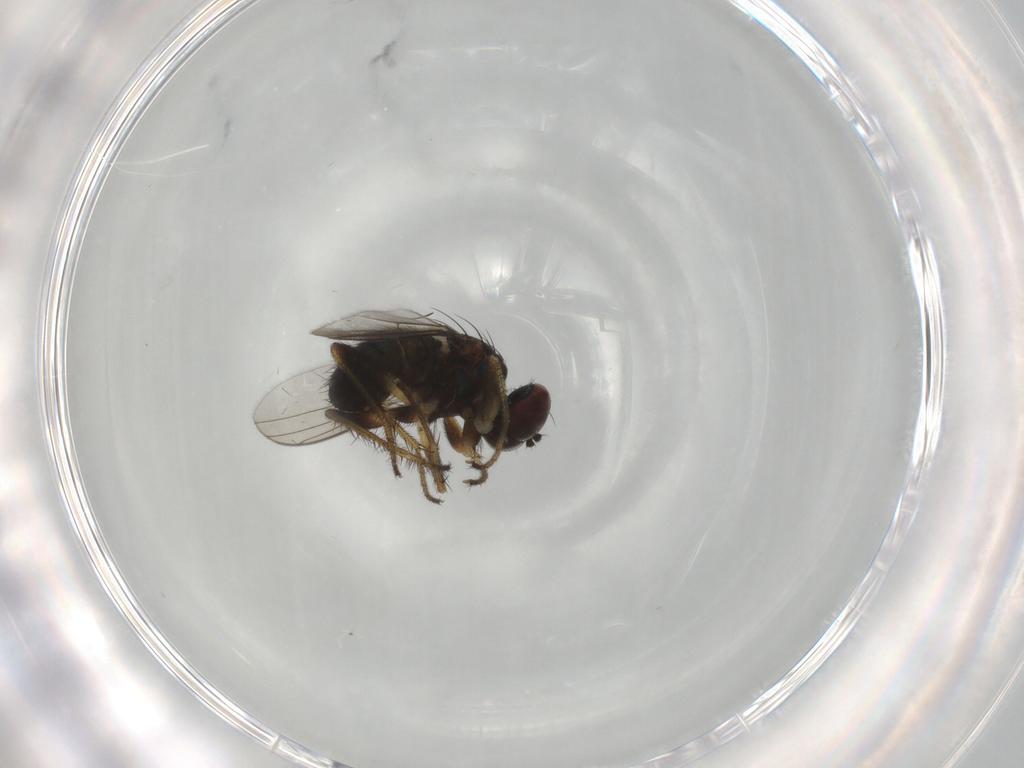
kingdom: Animalia
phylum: Arthropoda
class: Insecta
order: Diptera
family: Dolichopodidae
